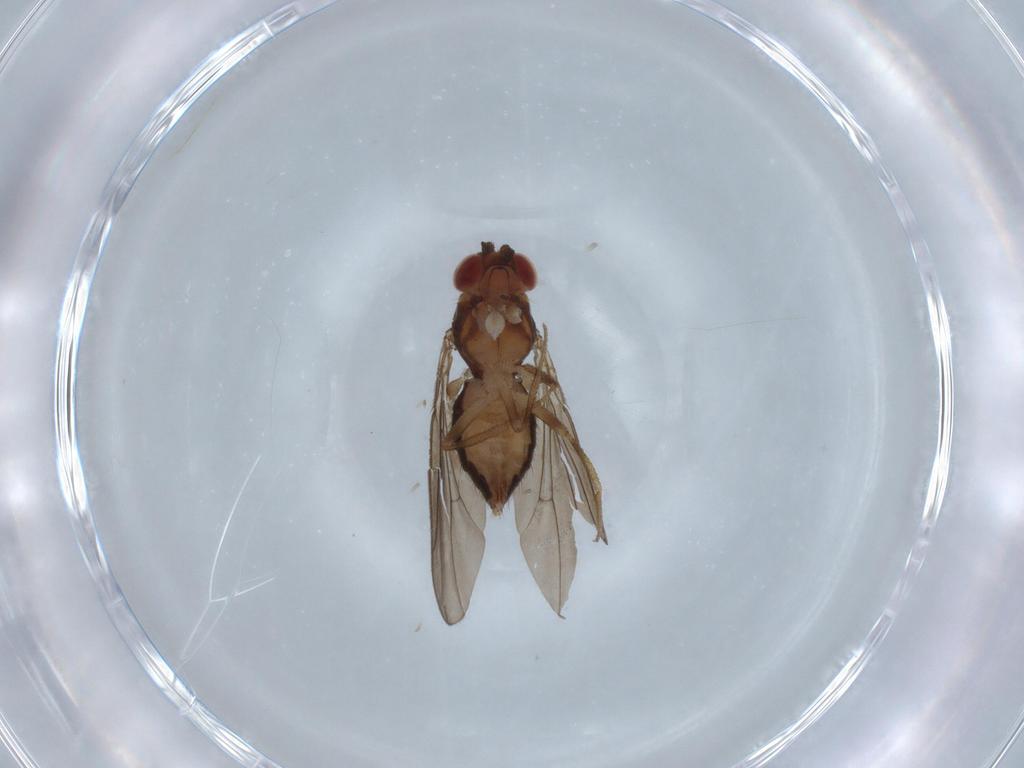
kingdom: Animalia
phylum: Arthropoda
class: Insecta
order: Diptera
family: Drosophilidae
